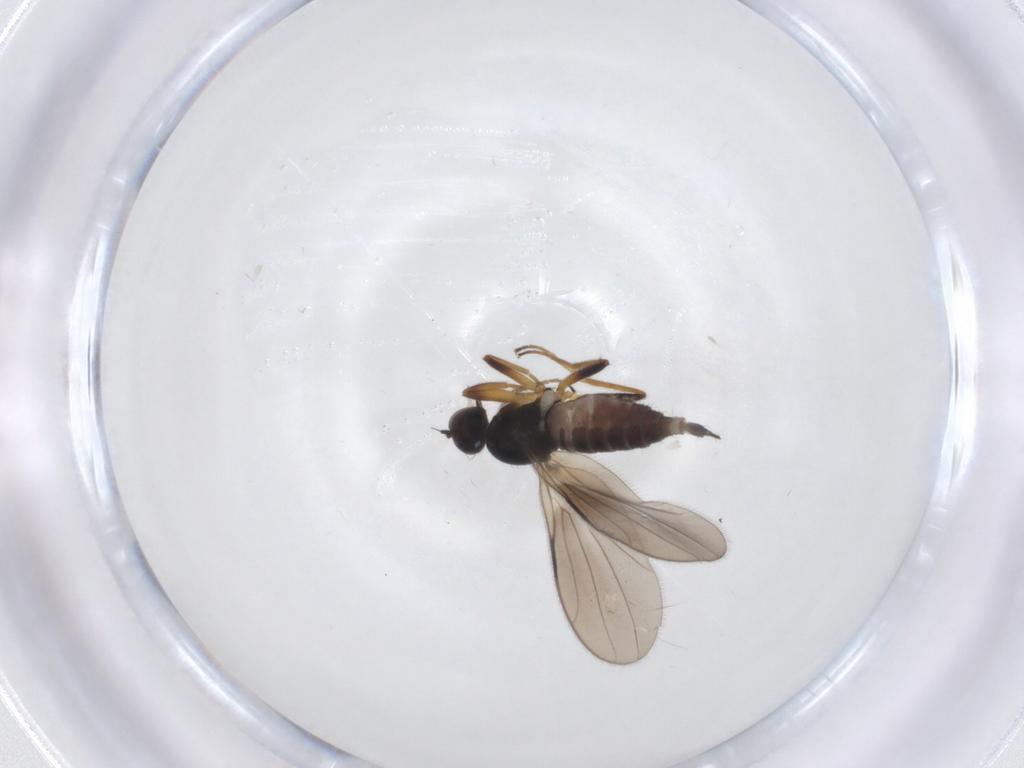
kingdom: Animalia
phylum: Arthropoda
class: Insecta
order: Diptera
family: Hybotidae
